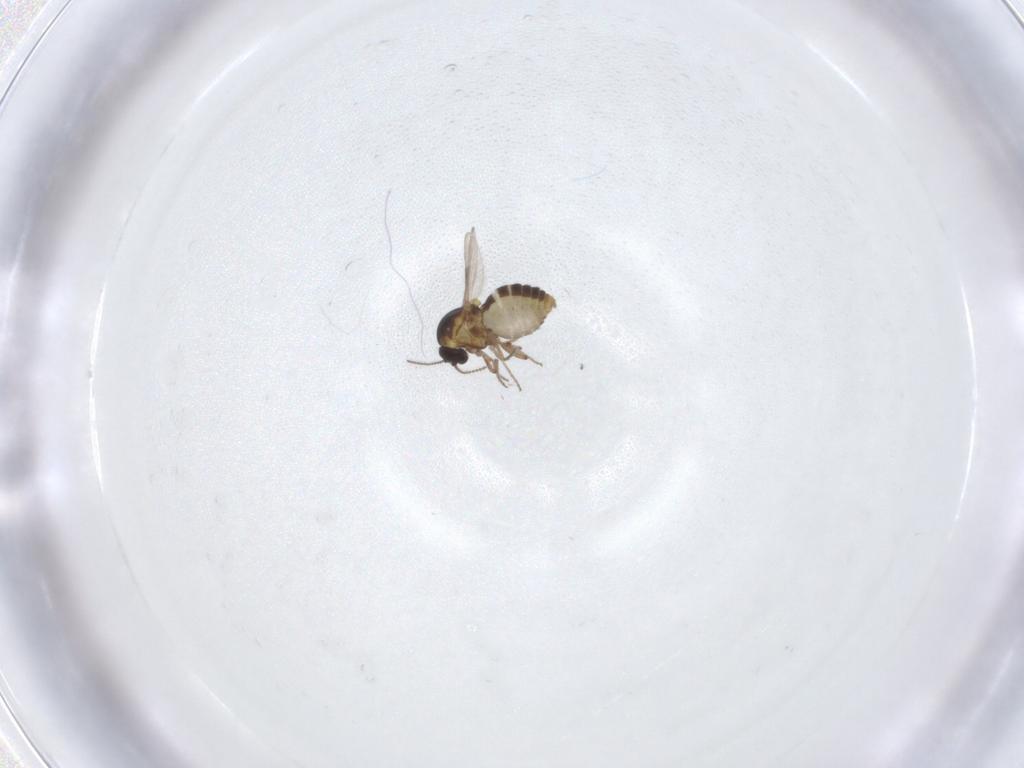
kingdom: Animalia
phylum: Arthropoda
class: Insecta
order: Diptera
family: Ceratopogonidae
